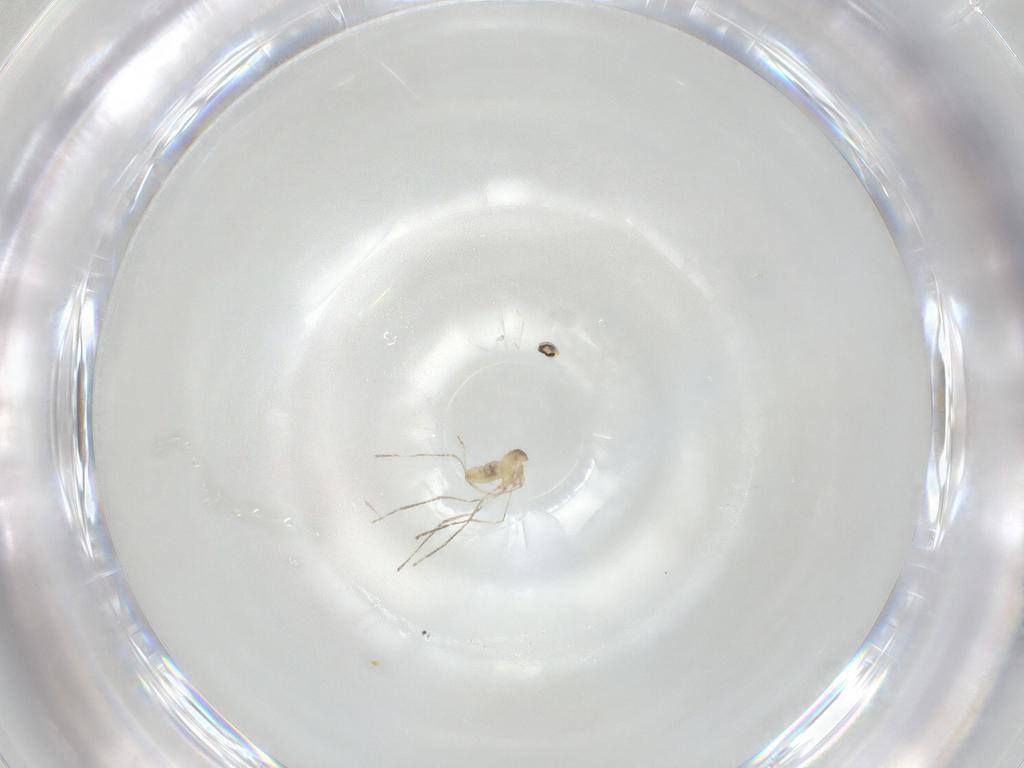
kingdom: Animalia
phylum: Arthropoda
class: Insecta
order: Diptera
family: Cecidomyiidae
